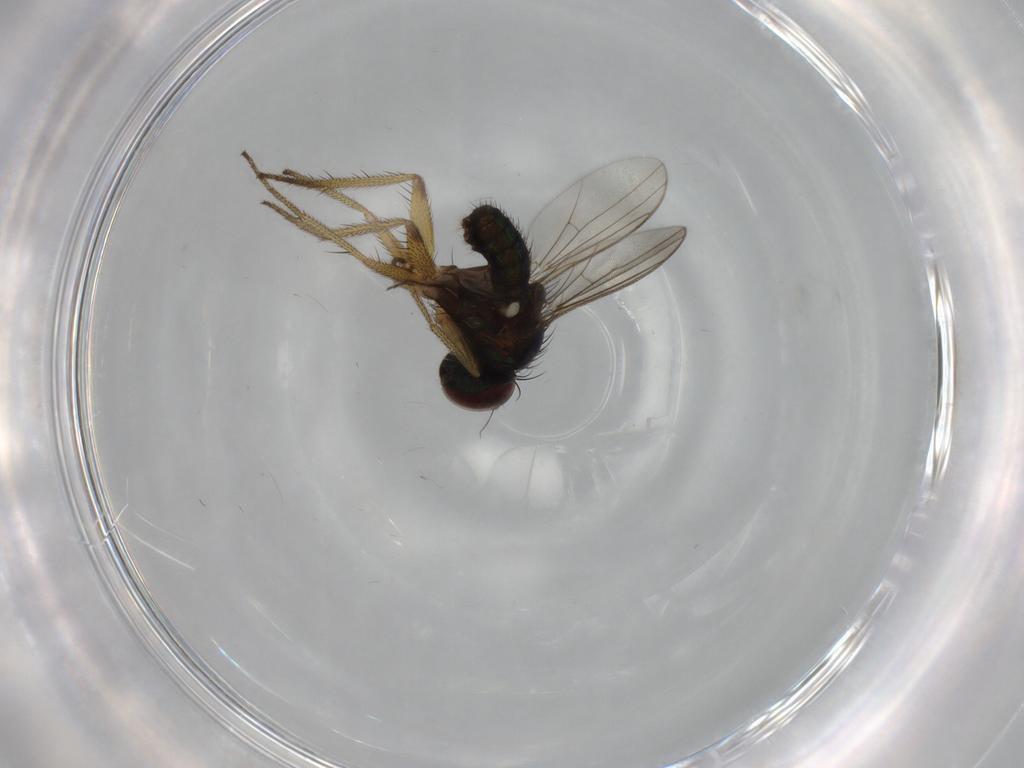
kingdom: Animalia
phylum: Arthropoda
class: Insecta
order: Diptera
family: Dolichopodidae
